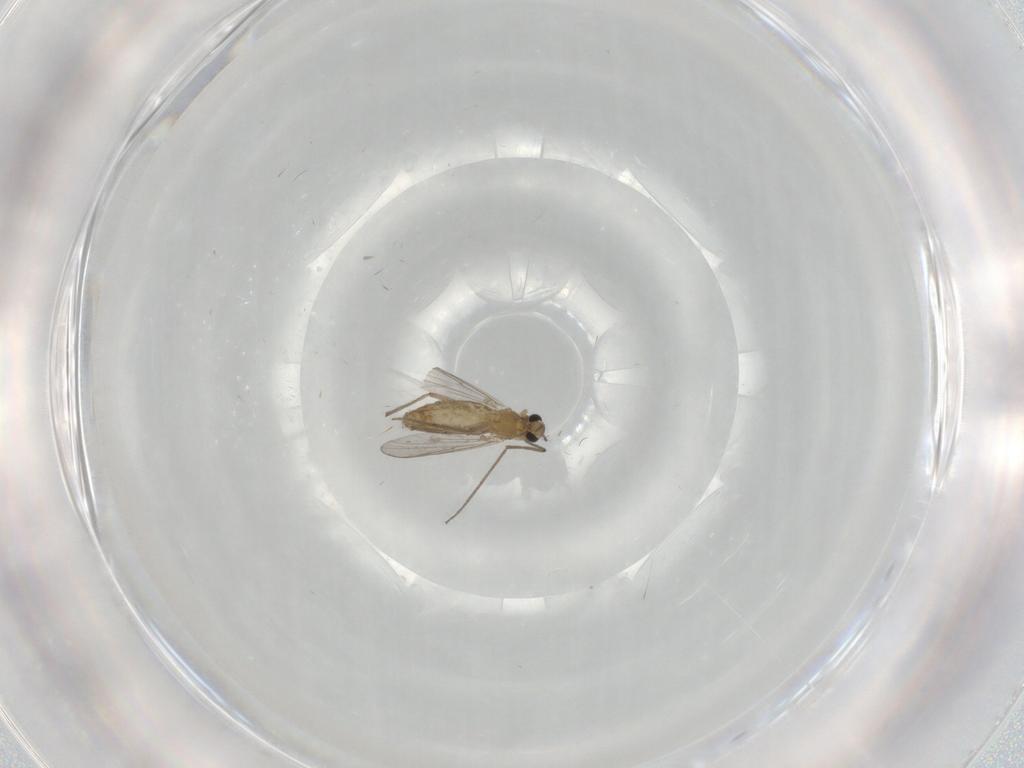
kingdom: Animalia
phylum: Arthropoda
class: Insecta
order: Diptera
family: Chironomidae
